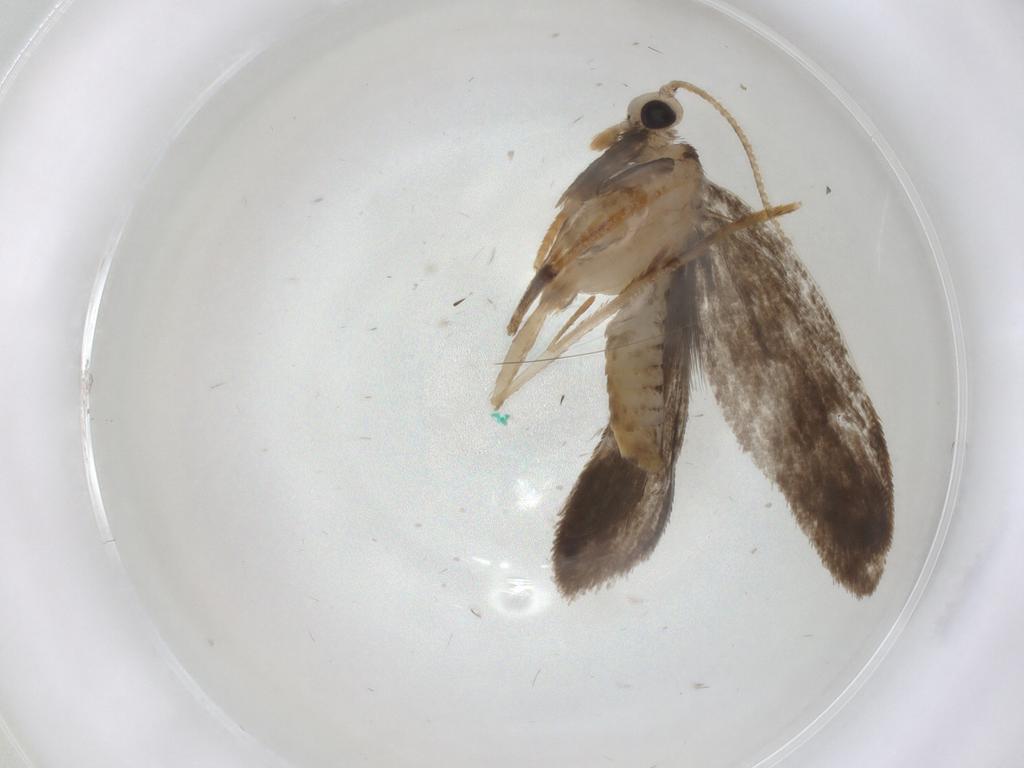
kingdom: Animalia
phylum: Arthropoda
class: Insecta
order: Lepidoptera
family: Psychidae
